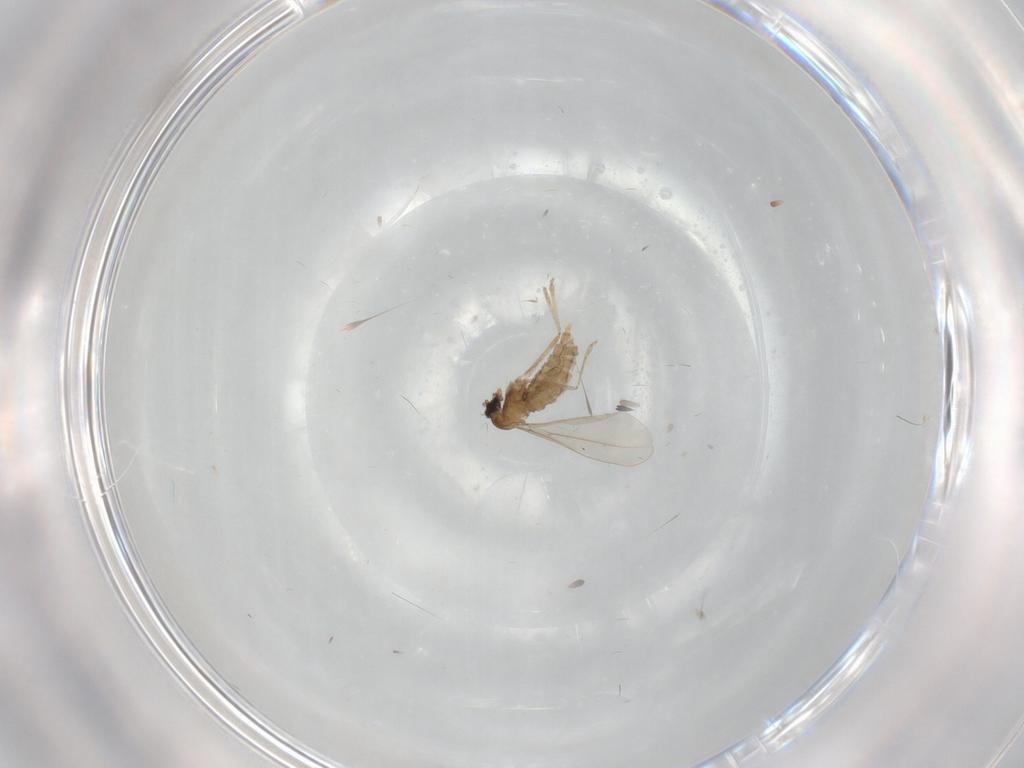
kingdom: Animalia
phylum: Arthropoda
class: Insecta
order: Diptera
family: Cecidomyiidae
